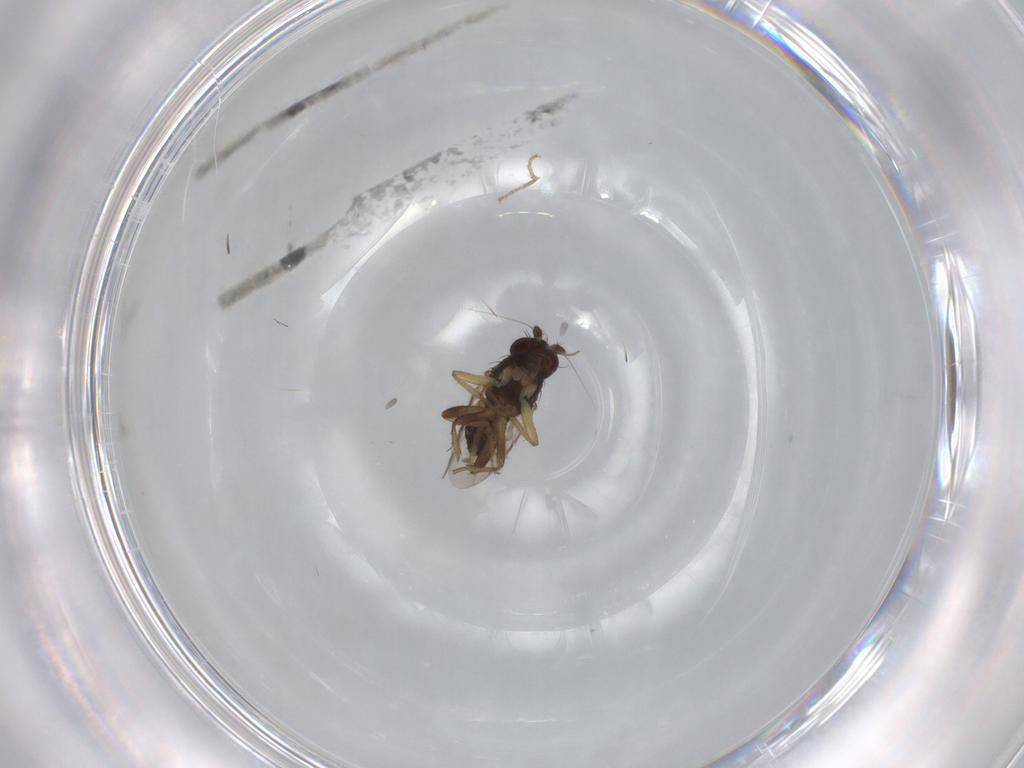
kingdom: Animalia
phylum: Arthropoda
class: Insecta
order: Diptera
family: Sphaeroceridae
